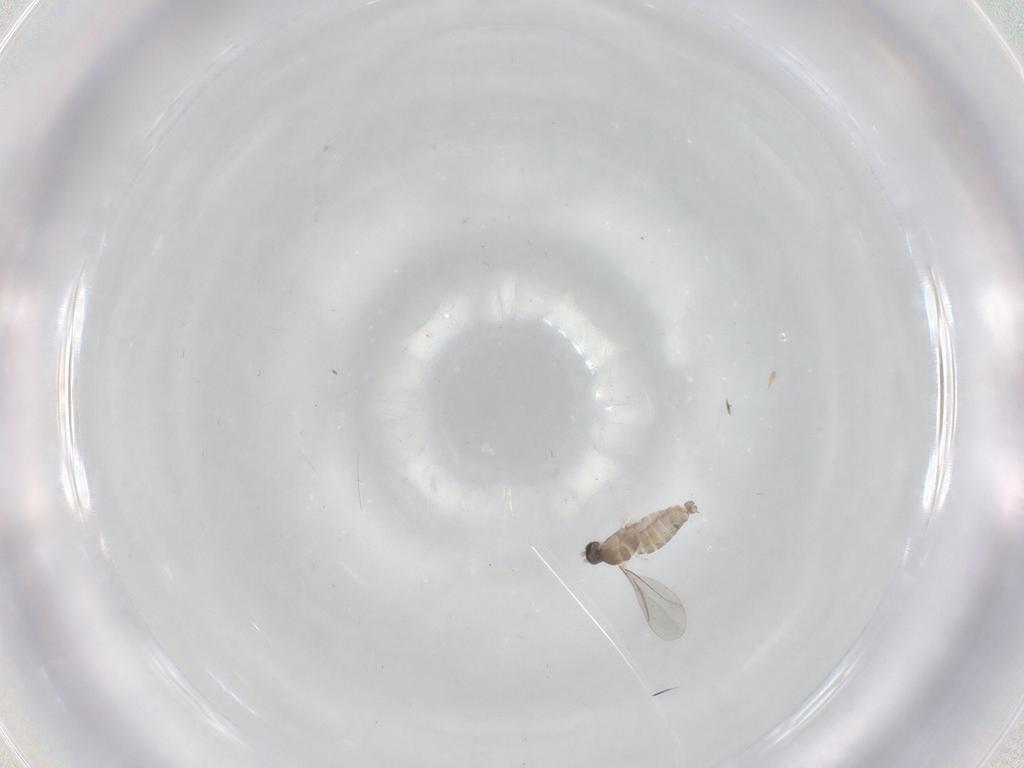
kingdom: Animalia
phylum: Arthropoda
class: Insecta
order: Diptera
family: Cecidomyiidae
